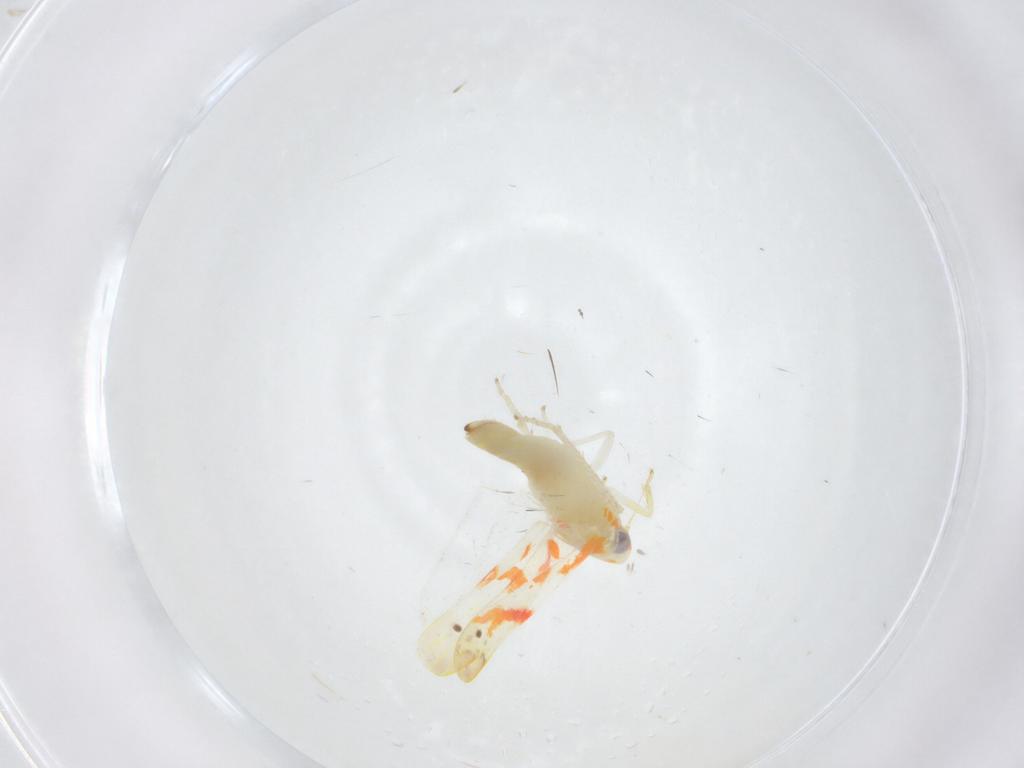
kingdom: Animalia
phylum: Arthropoda
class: Insecta
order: Hemiptera
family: Cicadellidae
